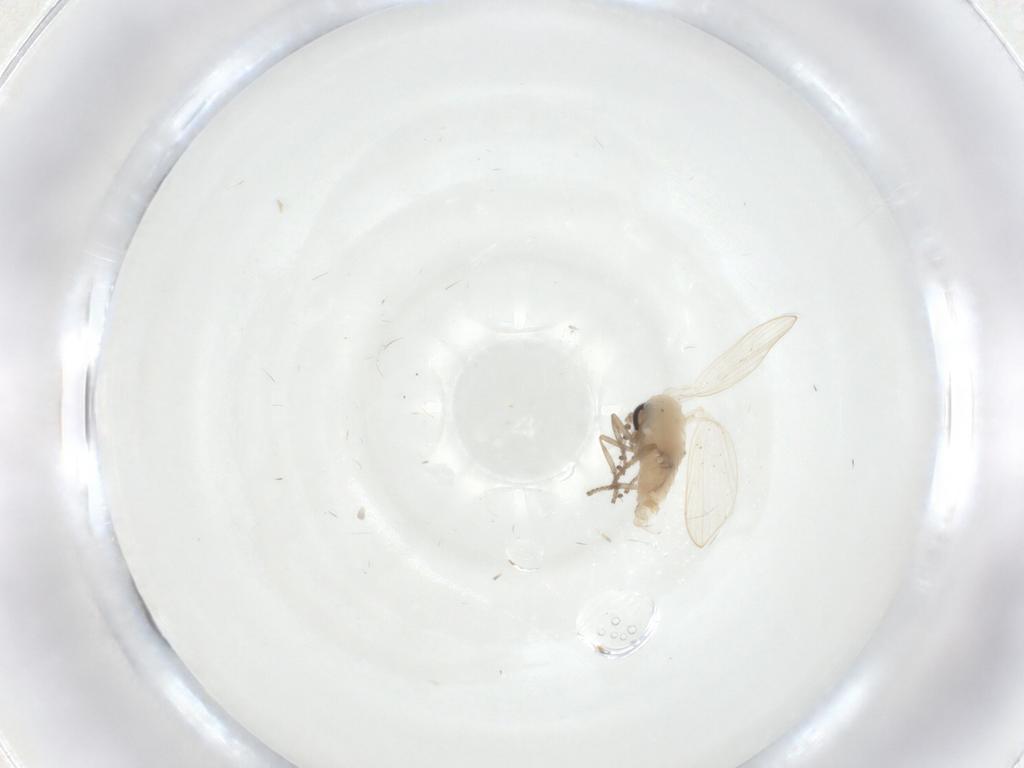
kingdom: Animalia
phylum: Arthropoda
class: Insecta
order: Diptera
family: Psychodidae
